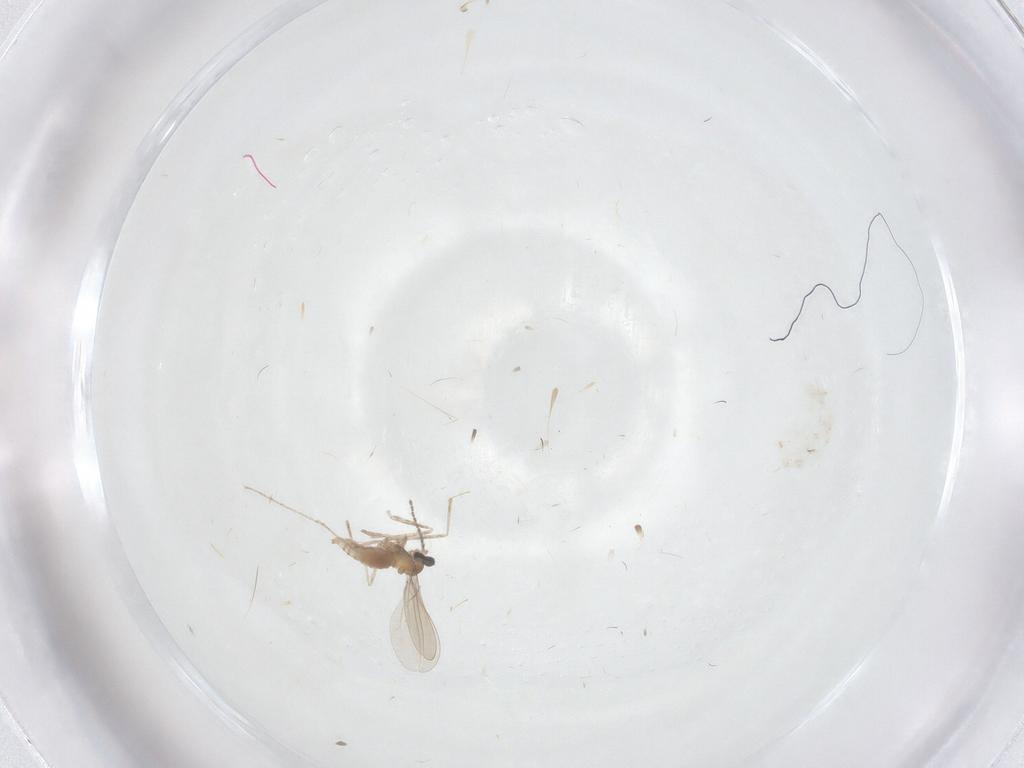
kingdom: Animalia
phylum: Arthropoda
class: Insecta
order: Diptera
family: Cecidomyiidae
